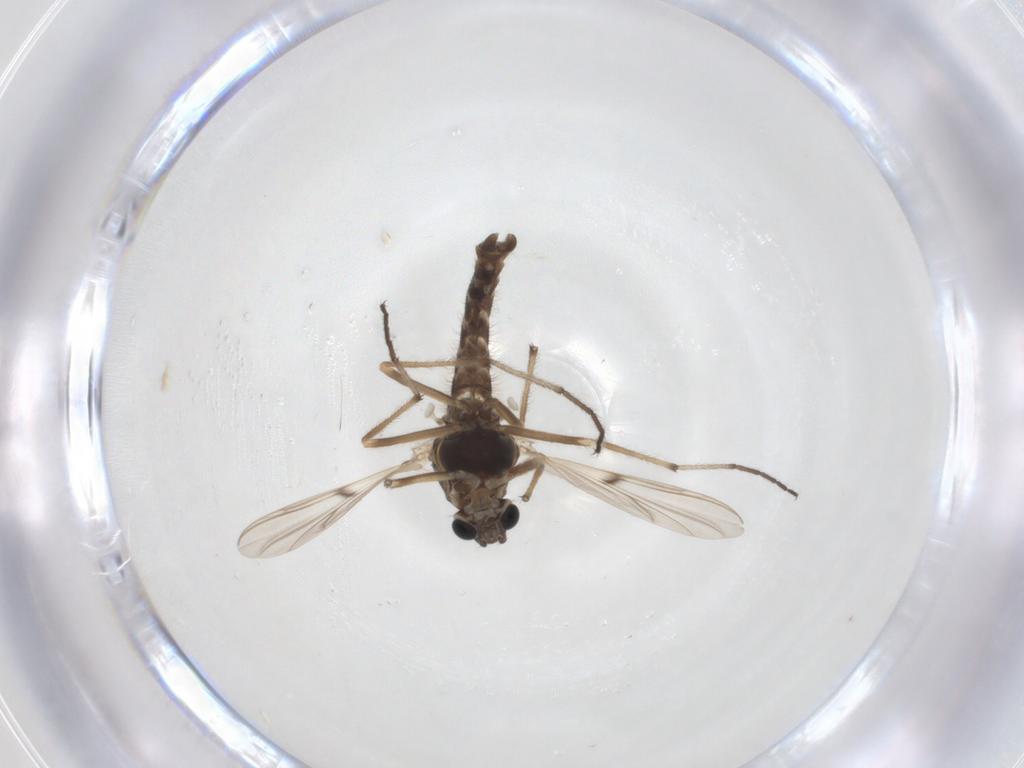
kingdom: Animalia
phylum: Arthropoda
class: Insecta
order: Diptera
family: Chironomidae
